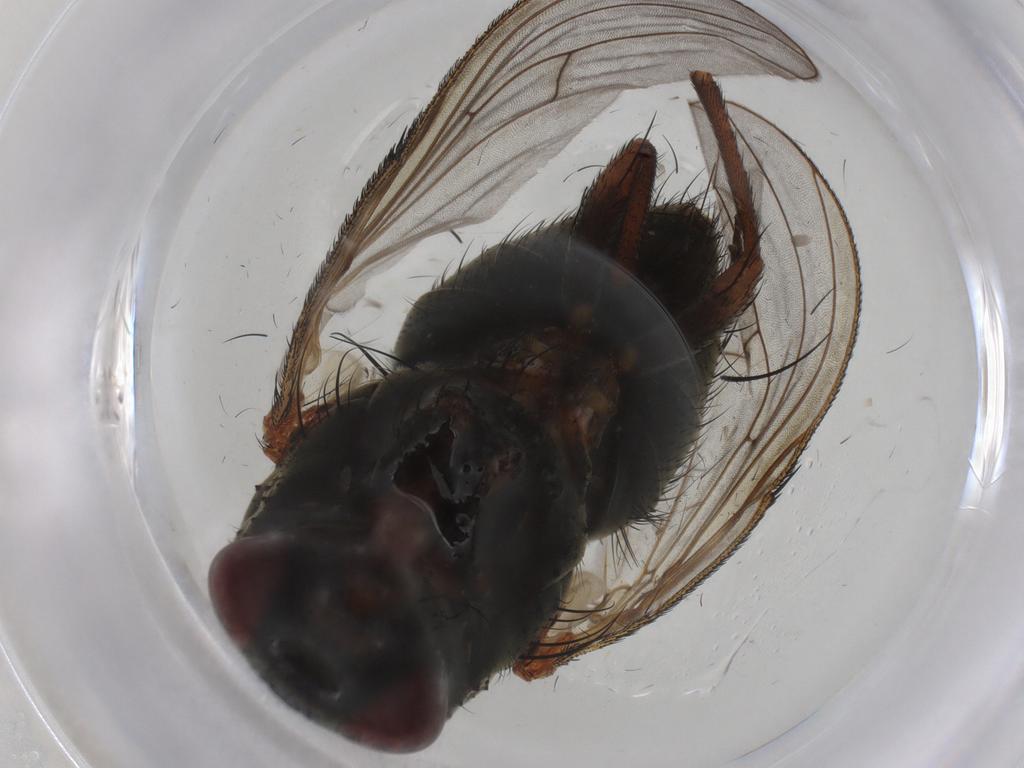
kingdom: Animalia
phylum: Arthropoda
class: Insecta
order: Diptera
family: Muscidae
